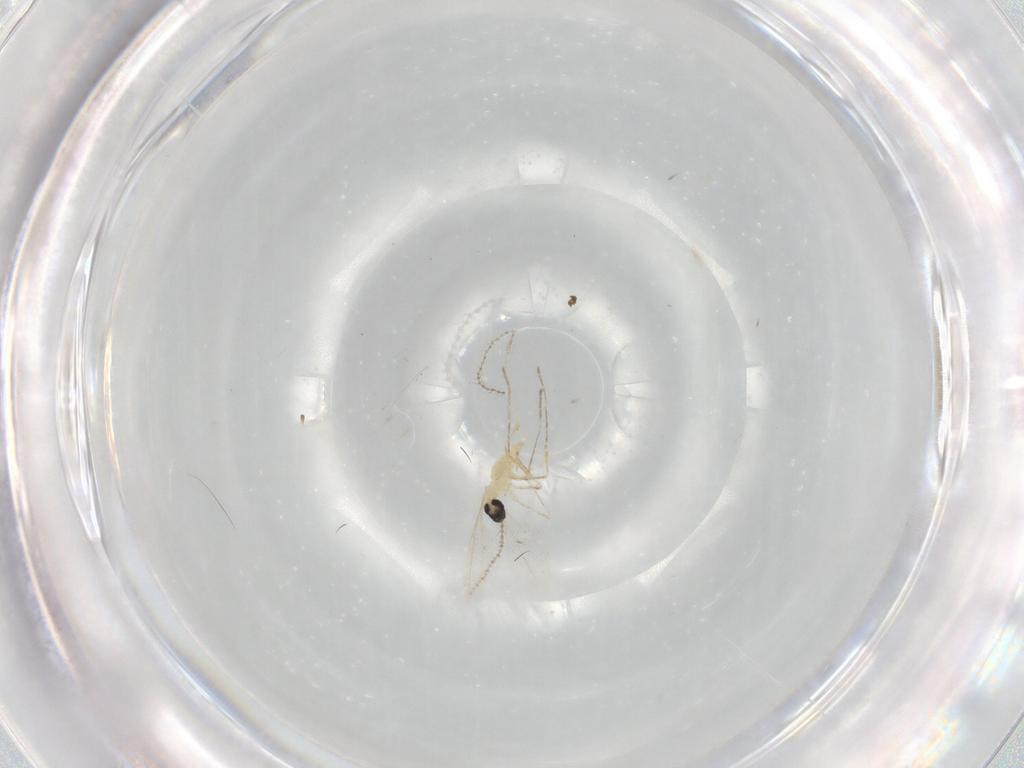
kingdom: Animalia
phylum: Arthropoda
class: Insecta
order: Diptera
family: Cecidomyiidae
